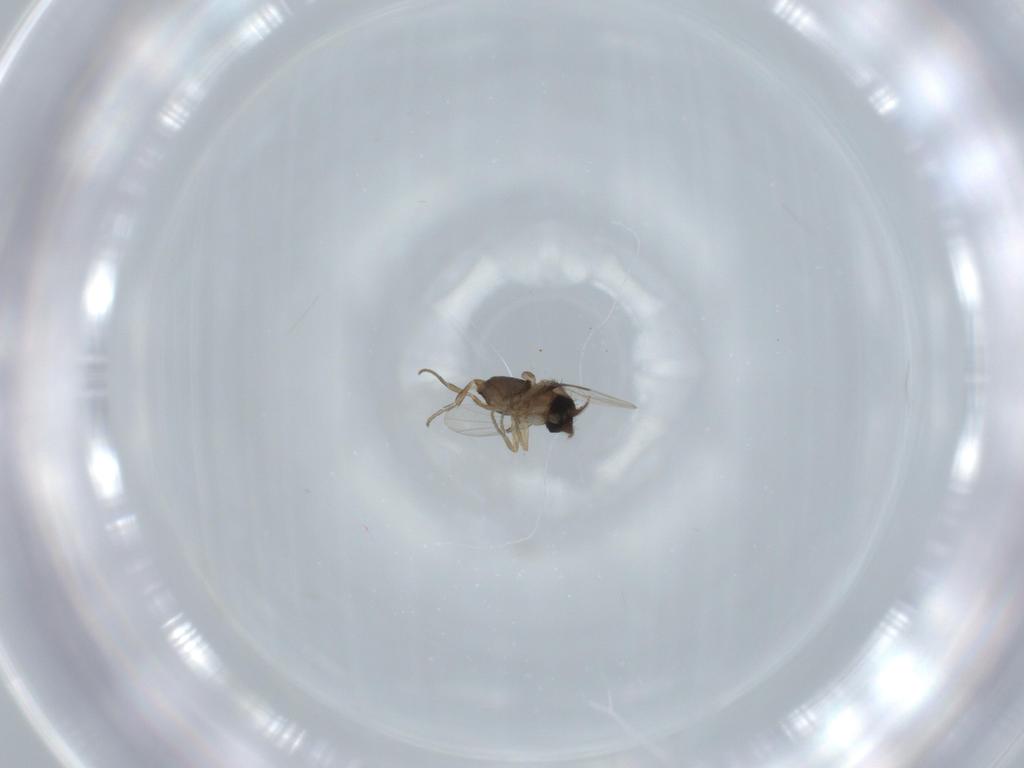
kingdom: Animalia
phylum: Arthropoda
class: Insecta
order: Diptera
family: Phoridae
